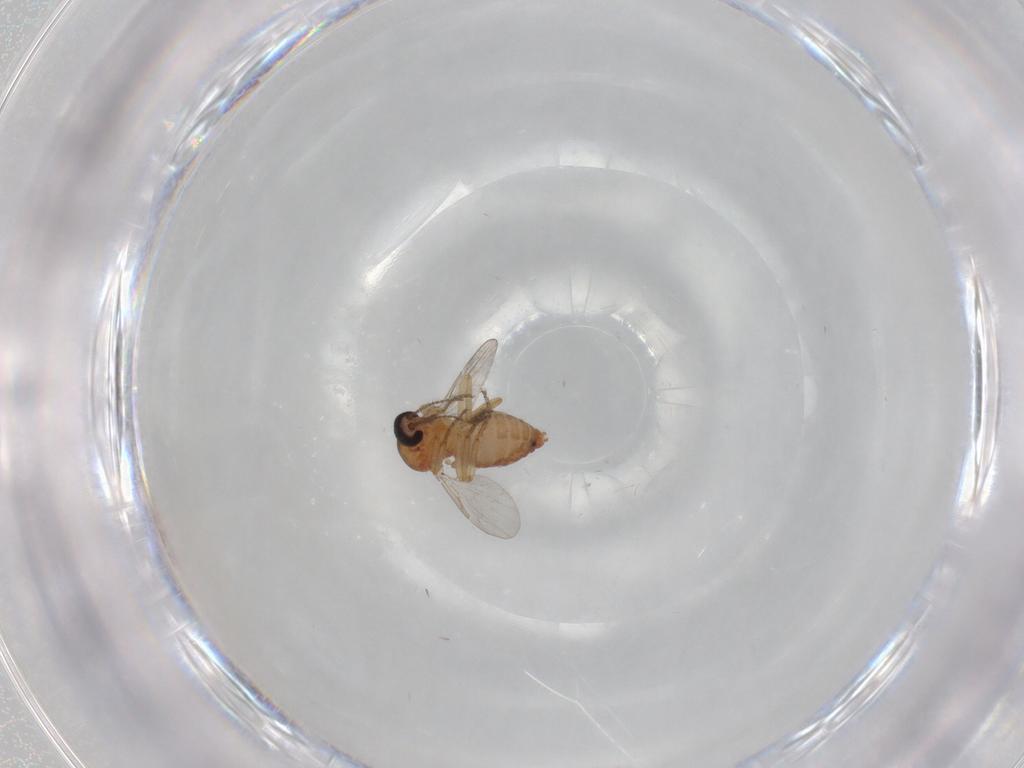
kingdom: Animalia
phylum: Arthropoda
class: Insecta
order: Diptera
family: Ceratopogonidae
